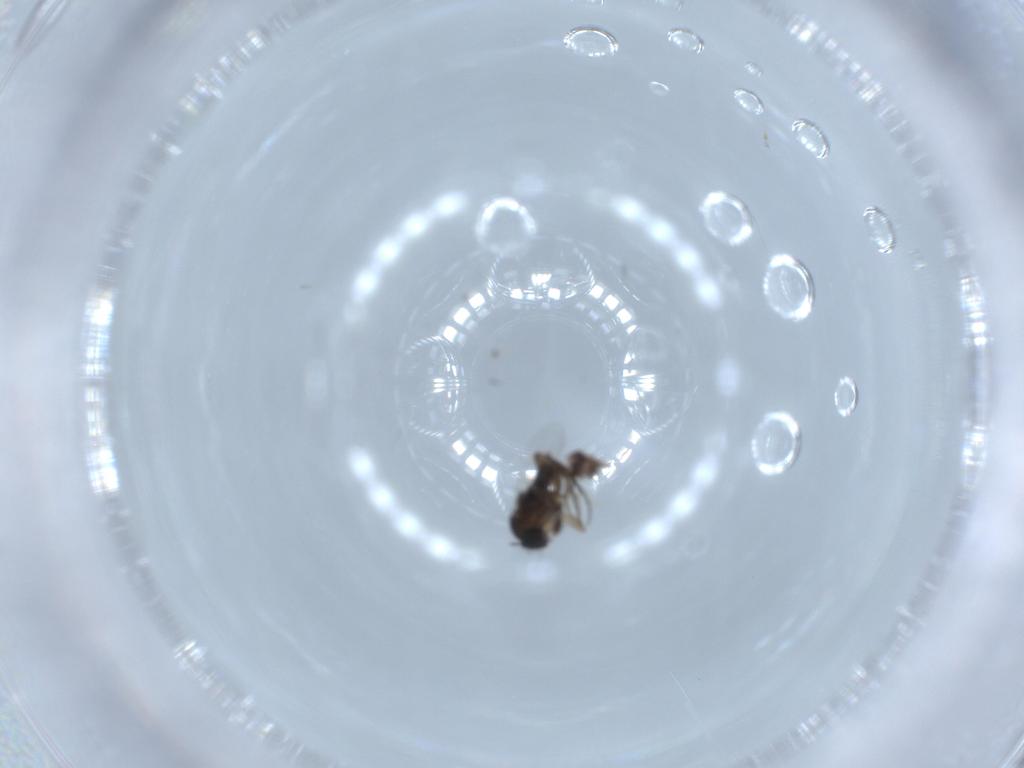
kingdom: Animalia
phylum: Arthropoda
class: Insecta
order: Diptera
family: Phoridae
